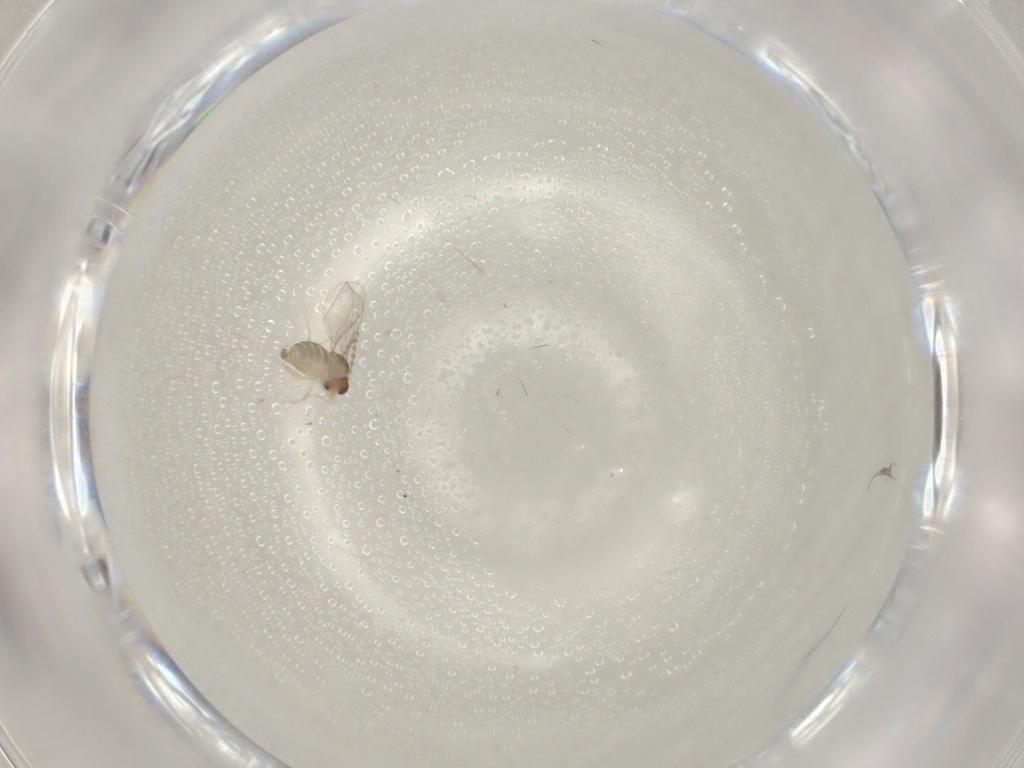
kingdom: Animalia
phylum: Arthropoda
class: Insecta
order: Diptera
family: Cecidomyiidae
